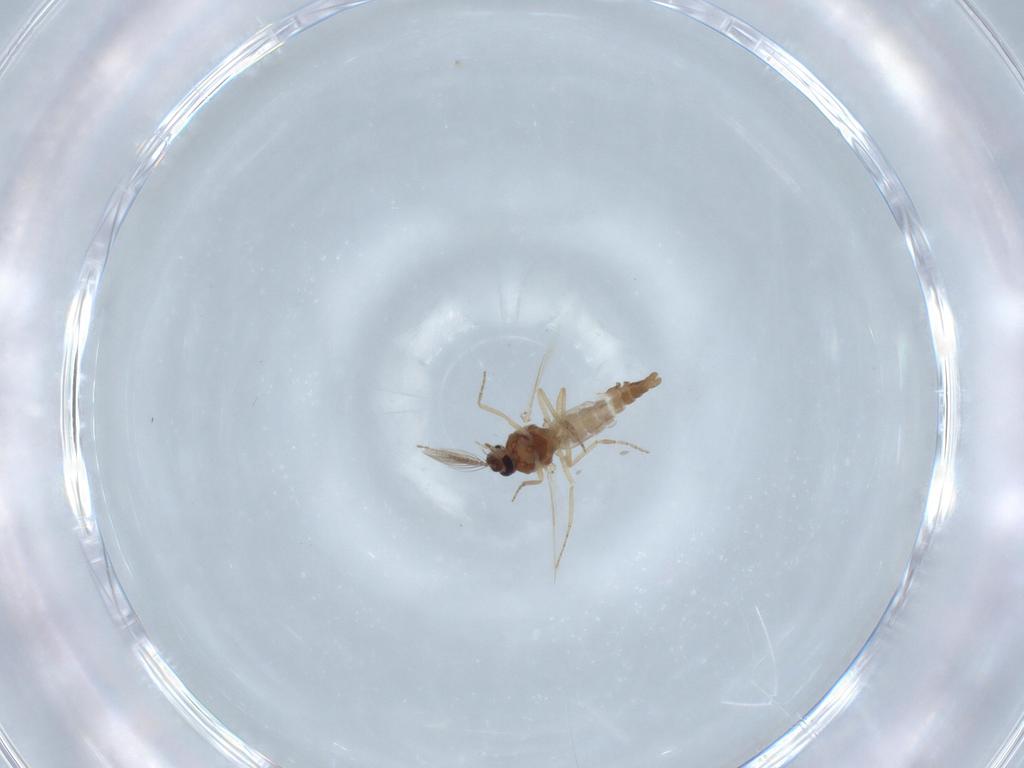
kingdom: Animalia
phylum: Arthropoda
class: Insecta
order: Diptera
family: Ceratopogonidae
